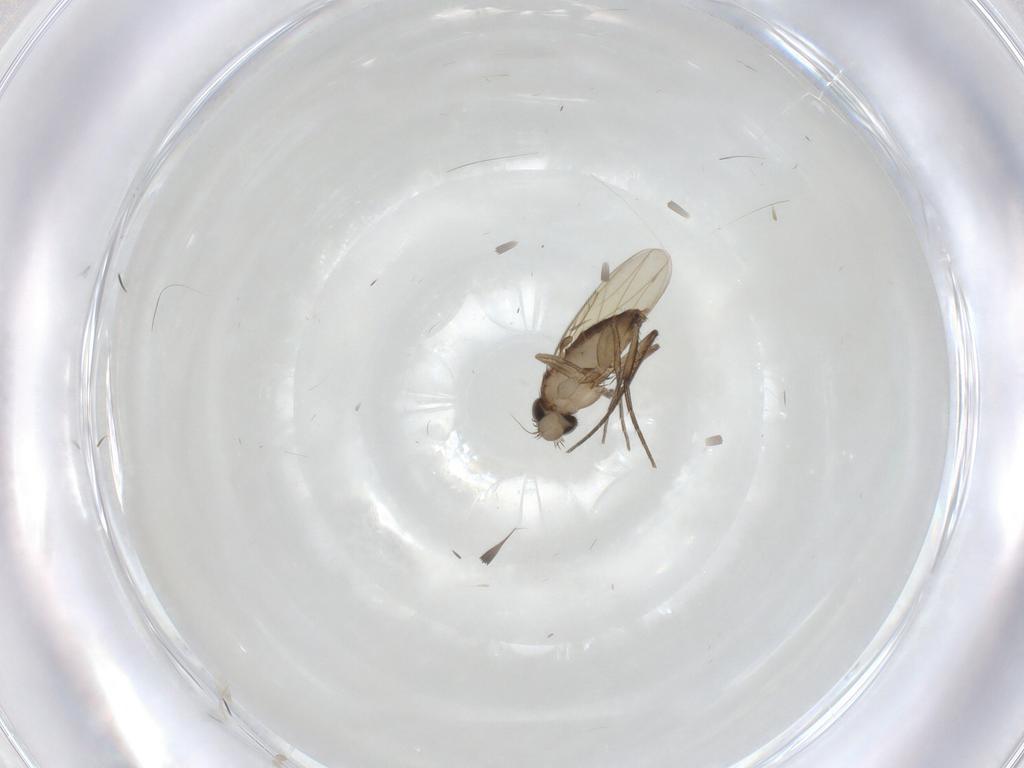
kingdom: Animalia
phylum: Arthropoda
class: Insecta
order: Diptera
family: Phoridae
